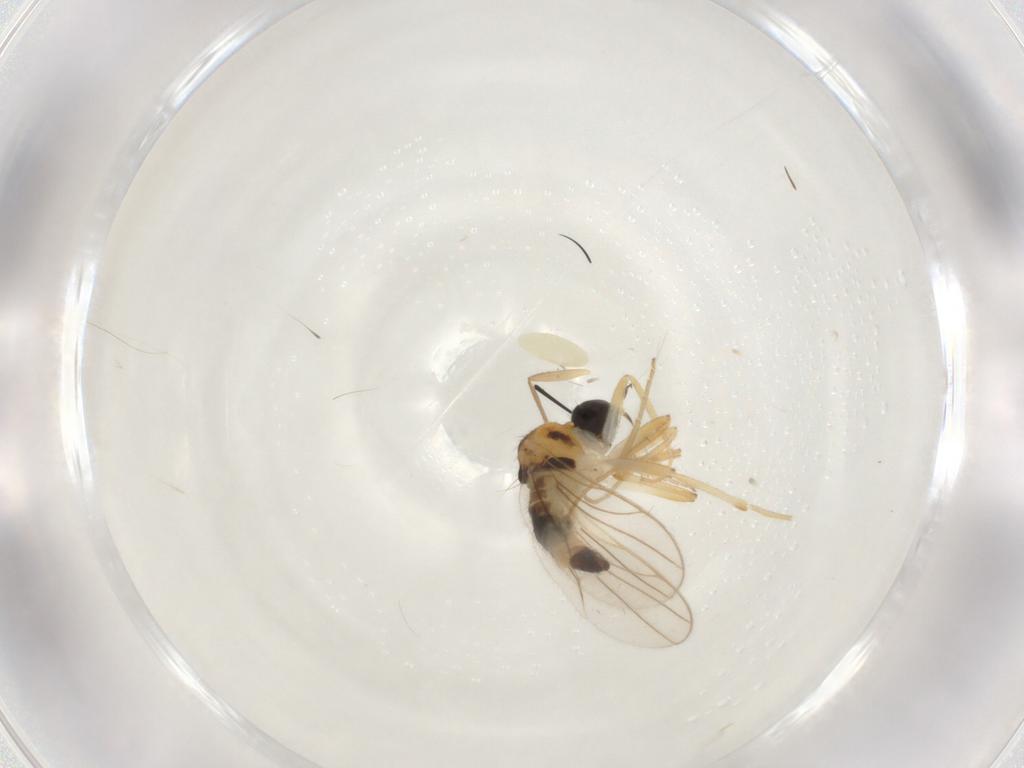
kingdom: Animalia
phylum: Arthropoda
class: Insecta
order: Diptera
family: Hybotidae
